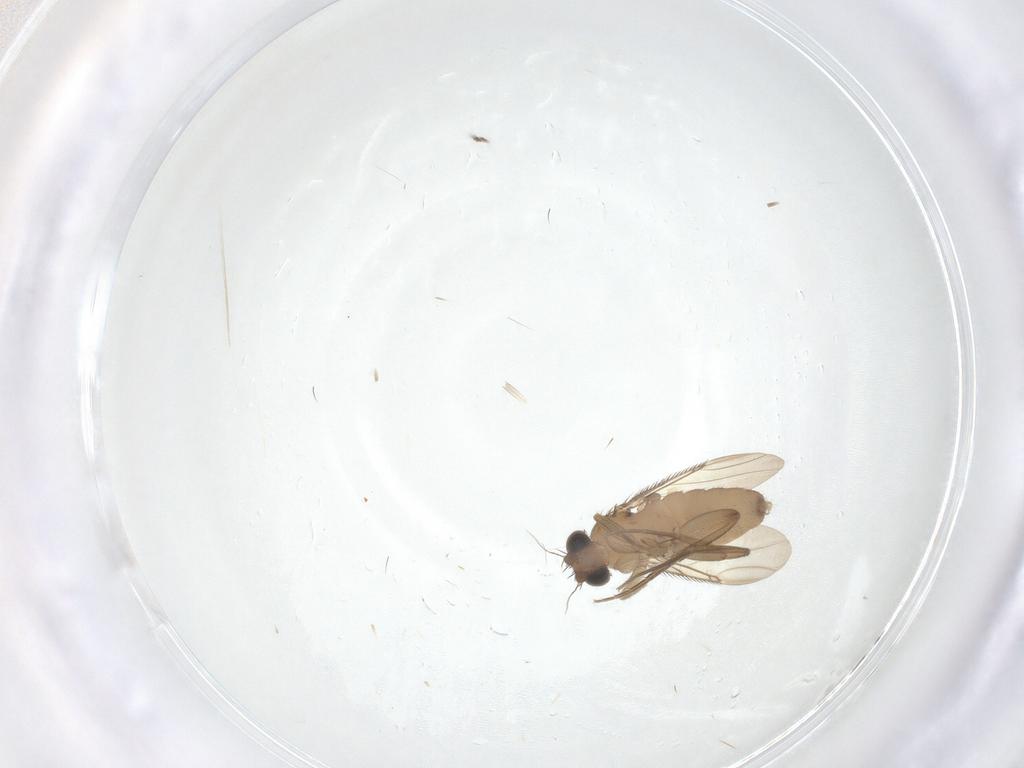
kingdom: Animalia
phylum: Arthropoda
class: Insecta
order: Diptera
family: Phoridae
